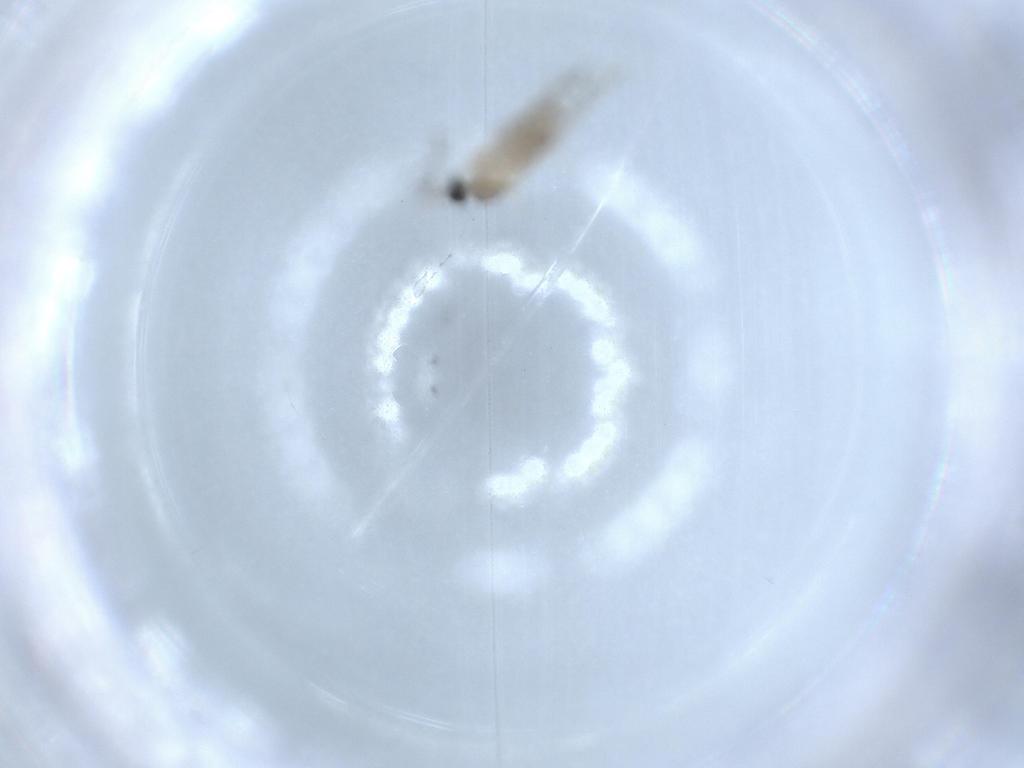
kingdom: Animalia
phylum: Arthropoda
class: Insecta
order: Diptera
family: Cecidomyiidae
